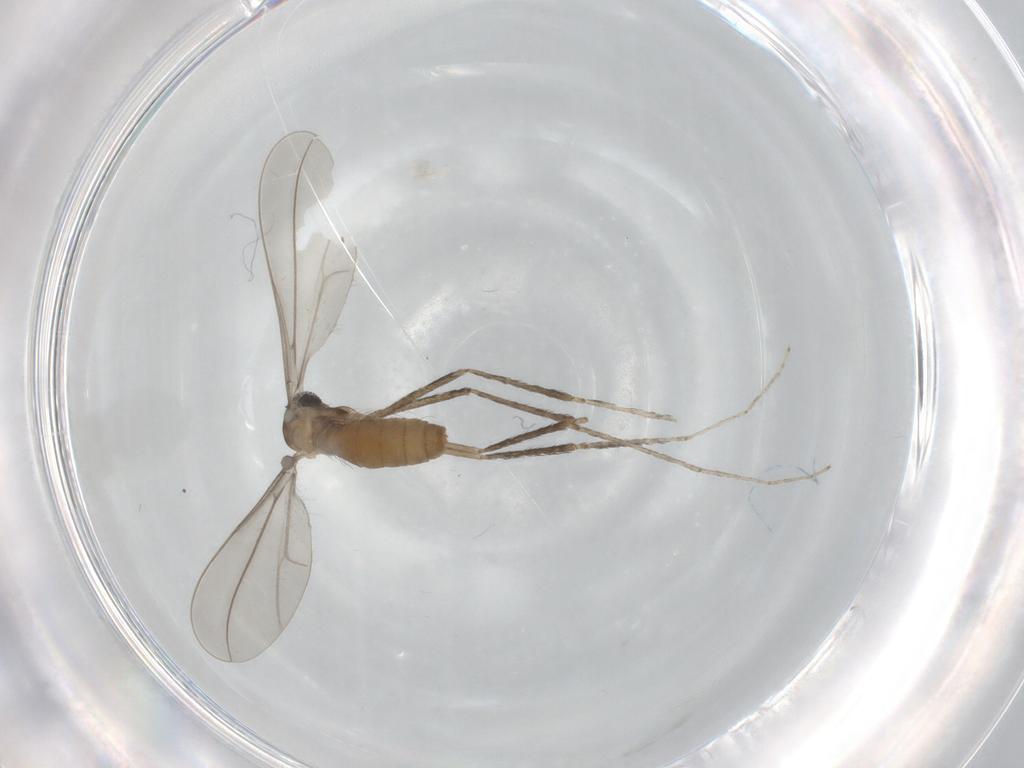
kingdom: Animalia
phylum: Arthropoda
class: Insecta
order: Diptera
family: Cecidomyiidae
